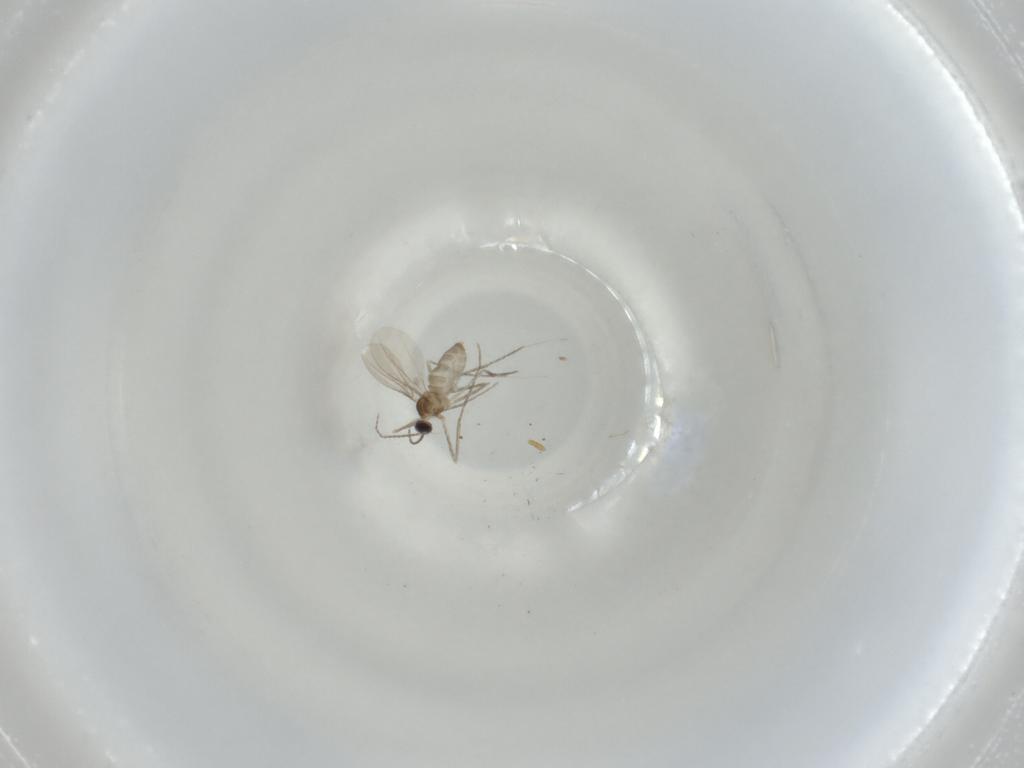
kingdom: Animalia
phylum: Arthropoda
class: Insecta
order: Diptera
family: Cecidomyiidae
